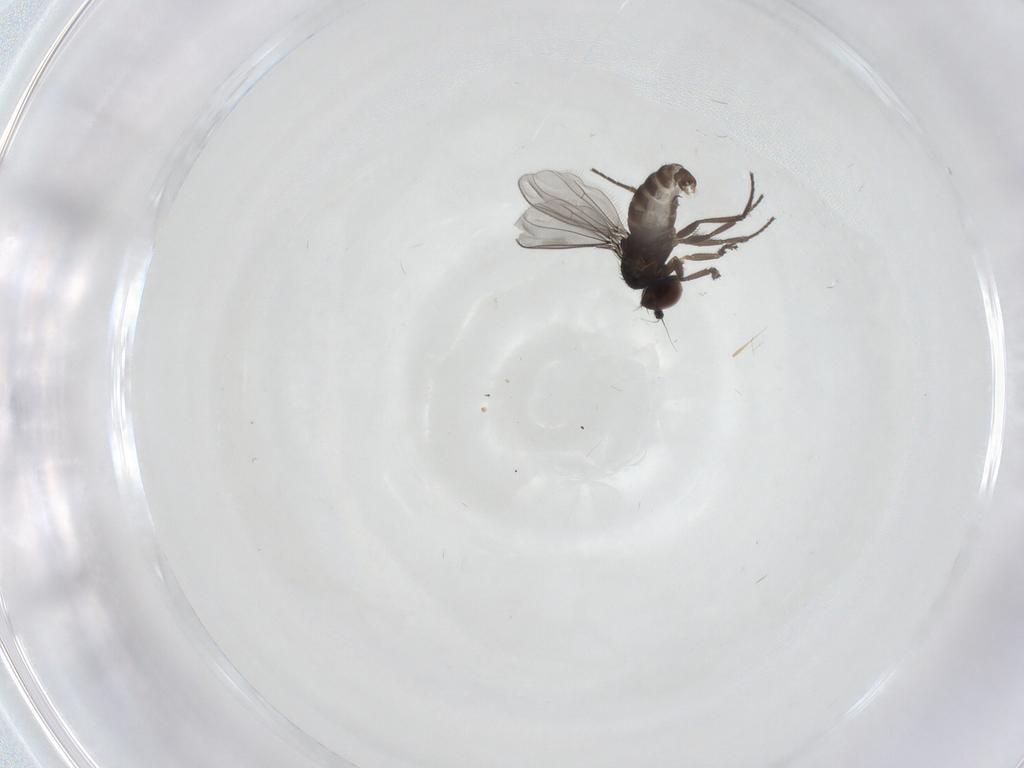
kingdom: Animalia
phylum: Arthropoda
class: Insecta
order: Diptera
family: Dolichopodidae
